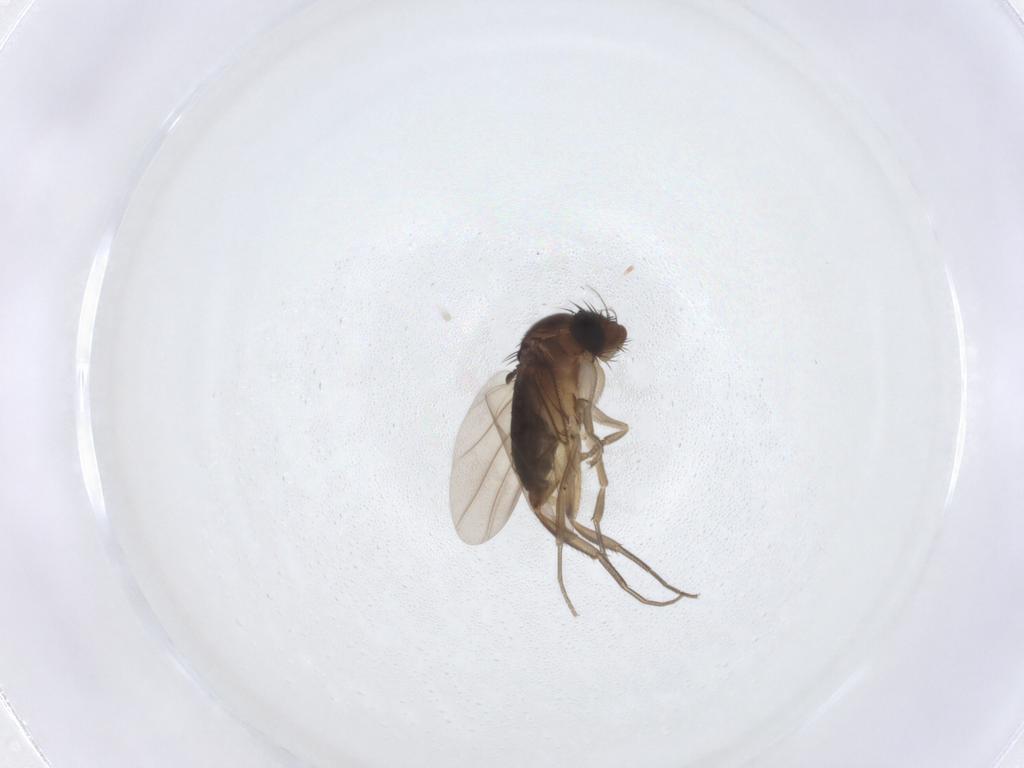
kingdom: Animalia
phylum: Arthropoda
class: Insecta
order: Diptera
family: Phoridae
